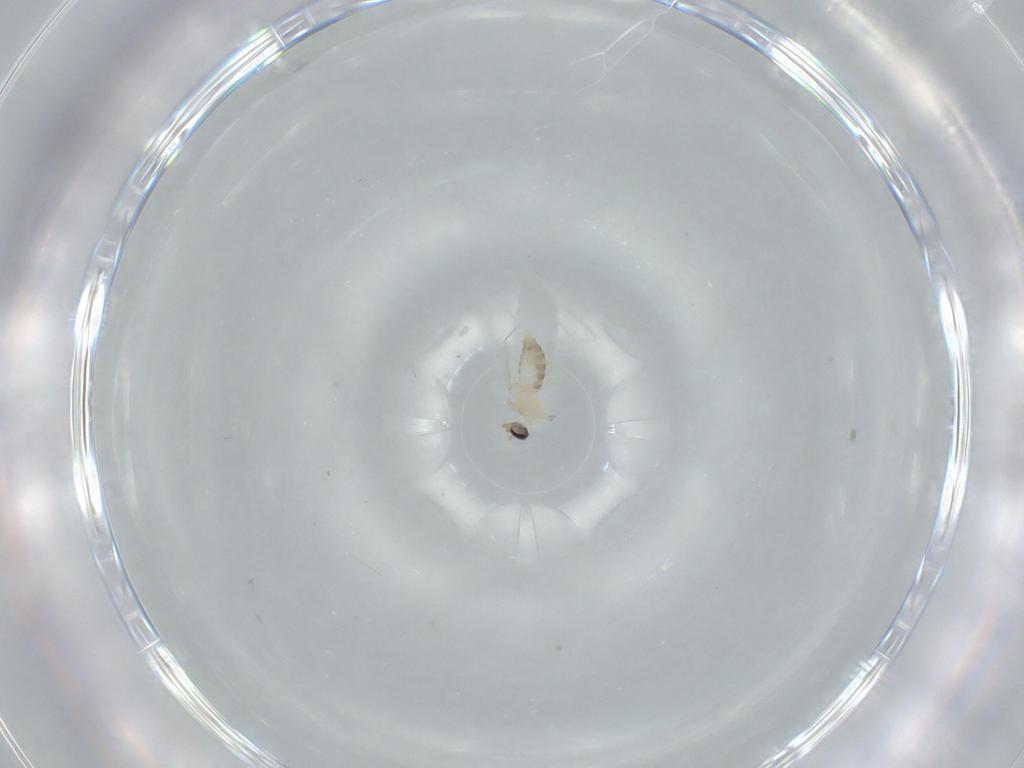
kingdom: Animalia
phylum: Arthropoda
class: Insecta
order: Diptera
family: Cecidomyiidae
